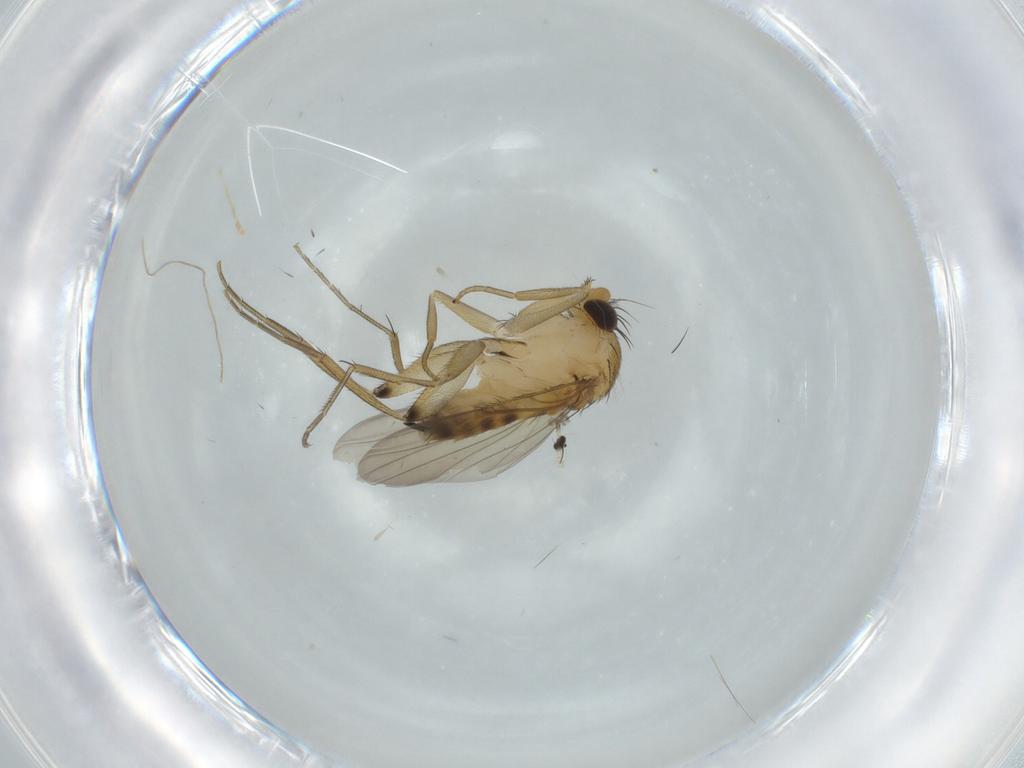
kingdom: Animalia
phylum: Arthropoda
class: Insecta
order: Diptera
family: Phoridae
